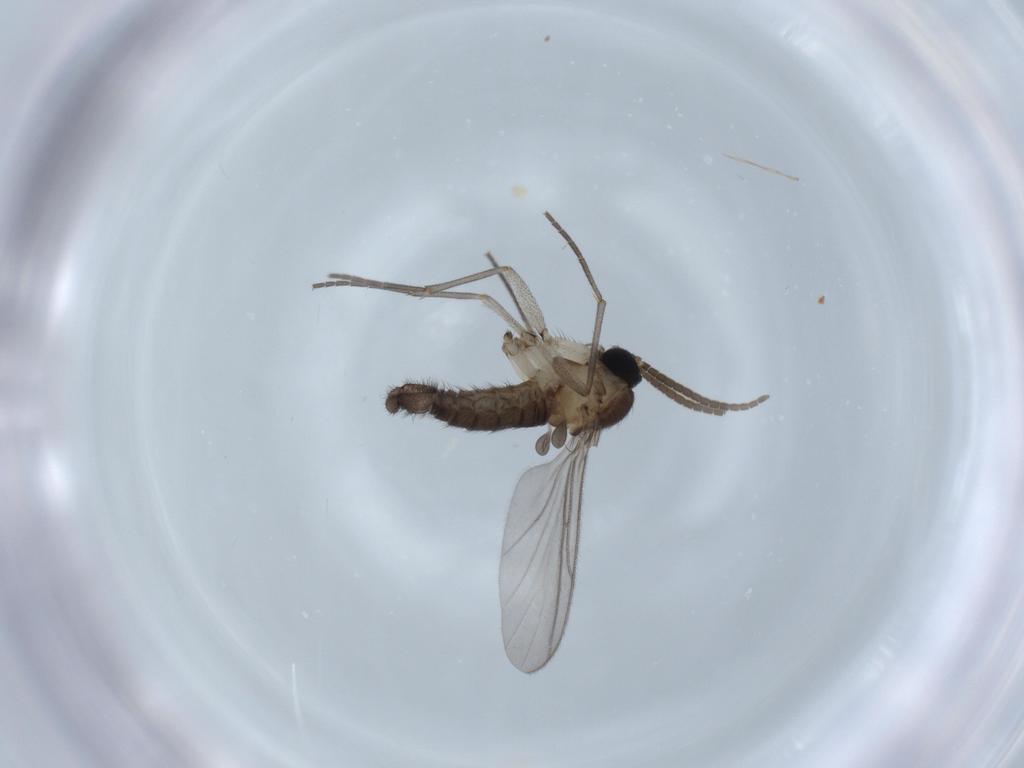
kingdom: Animalia
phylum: Arthropoda
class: Insecta
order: Diptera
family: Sciaridae
